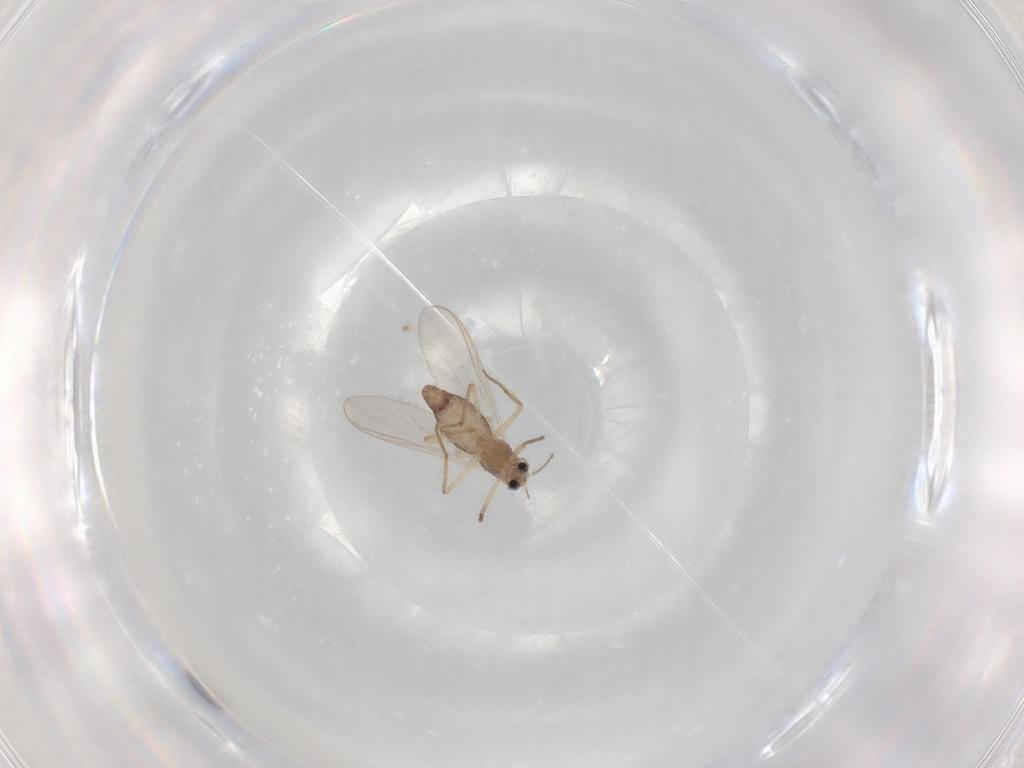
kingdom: Animalia
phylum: Arthropoda
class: Insecta
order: Diptera
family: Chironomidae
